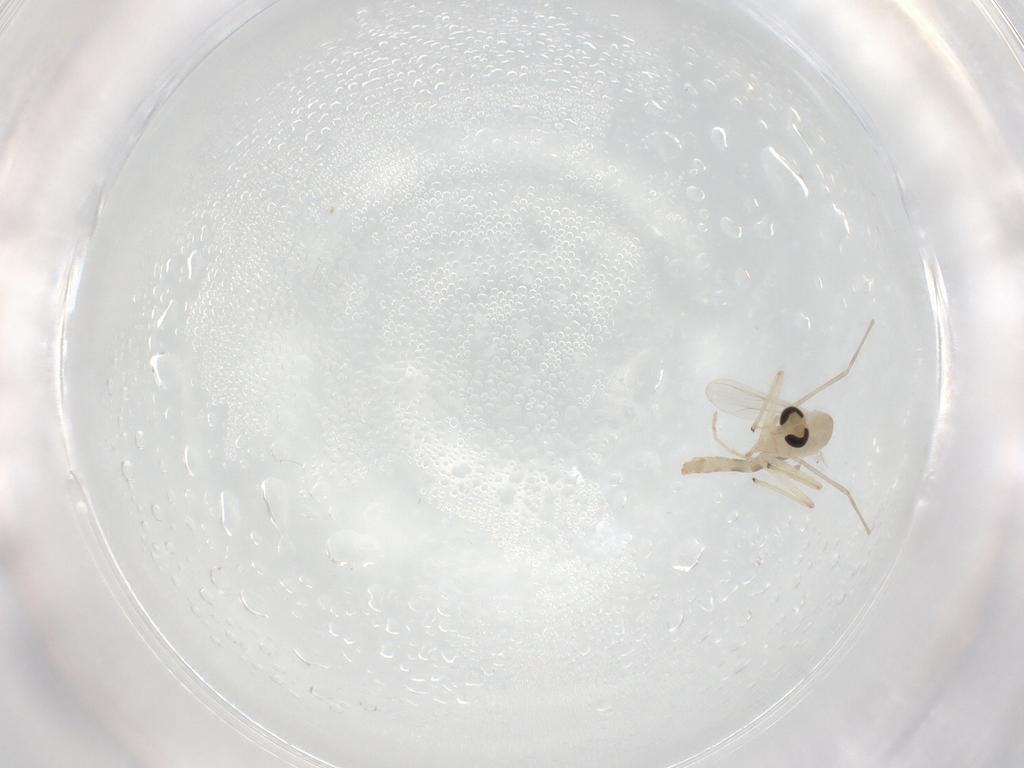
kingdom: Animalia
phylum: Arthropoda
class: Insecta
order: Diptera
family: Chironomidae
